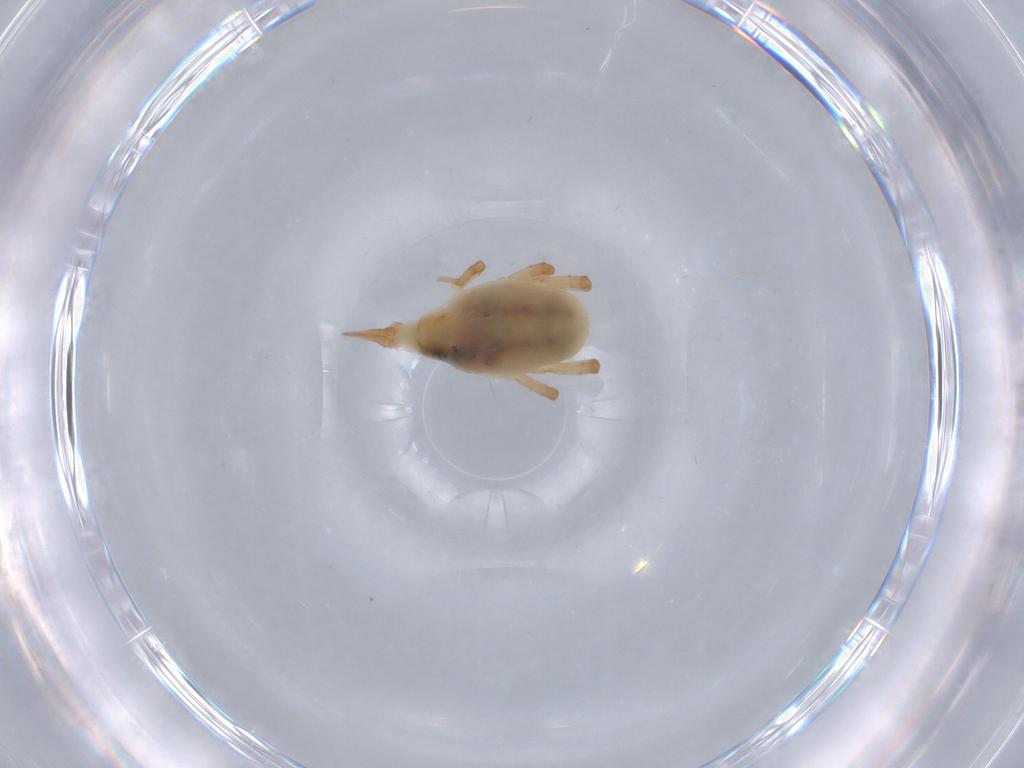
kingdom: Animalia
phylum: Arthropoda
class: Arachnida
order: Trombidiformes
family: Bdellidae
